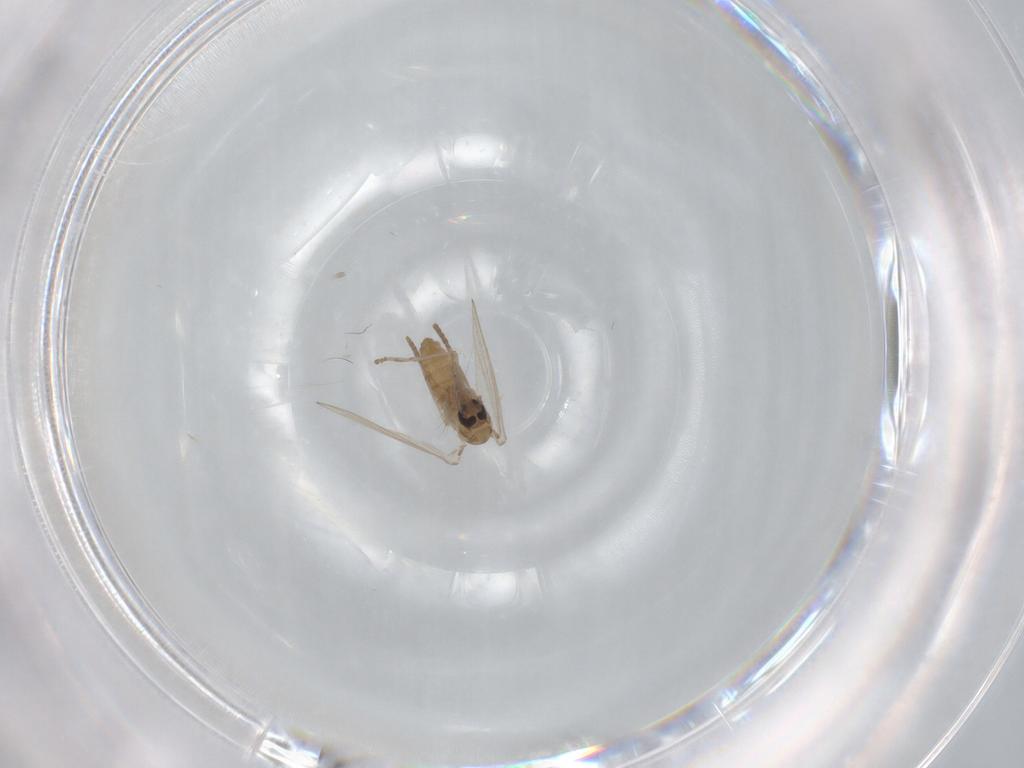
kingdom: Animalia
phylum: Arthropoda
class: Insecta
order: Diptera
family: Psychodidae
